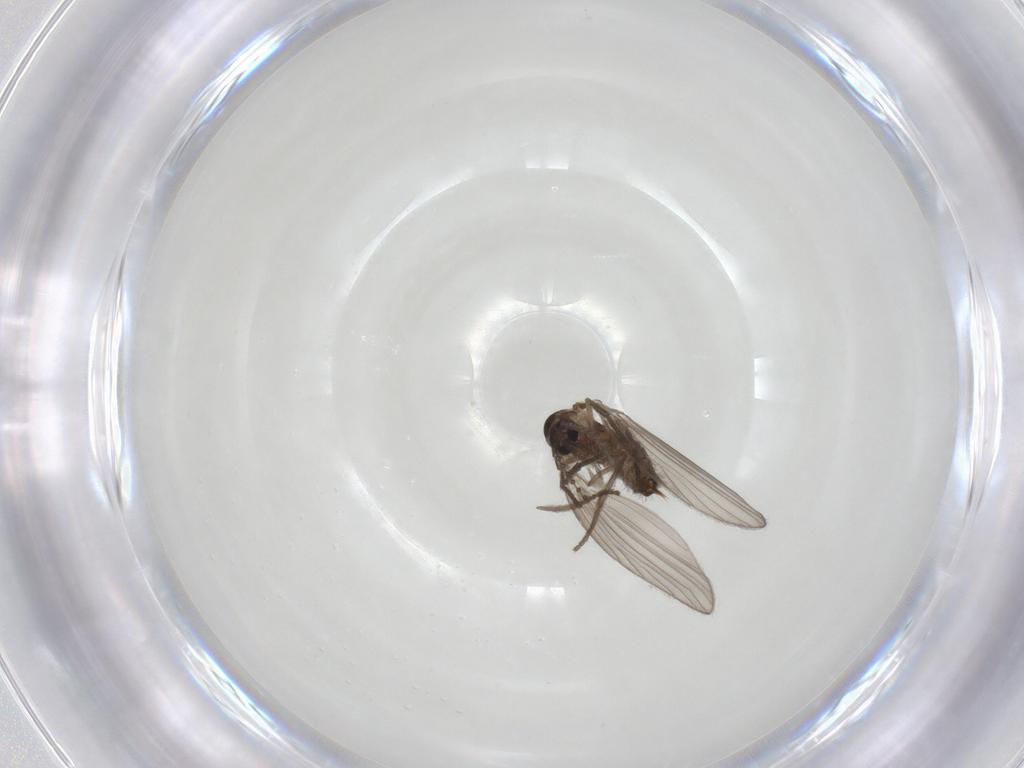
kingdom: Animalia
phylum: Arthropoda
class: Insecta
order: Diptera
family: Psychodidae
